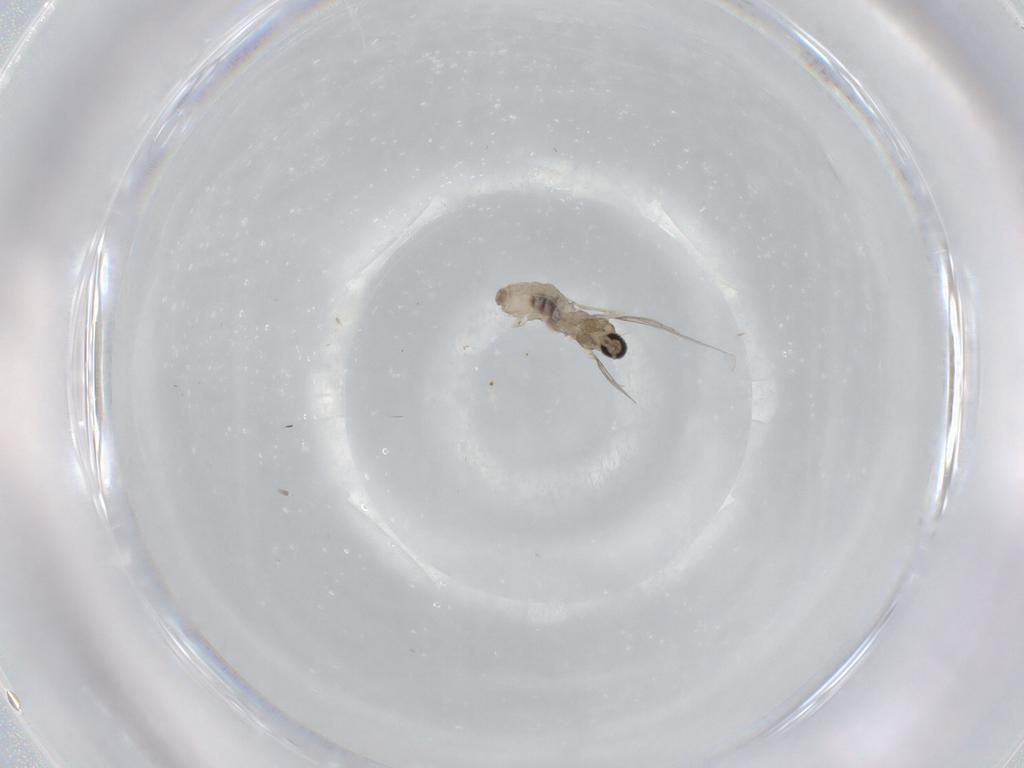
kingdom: Animalia
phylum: Arthropoda
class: Insecta
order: Diptera
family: Cecidomyiidae
